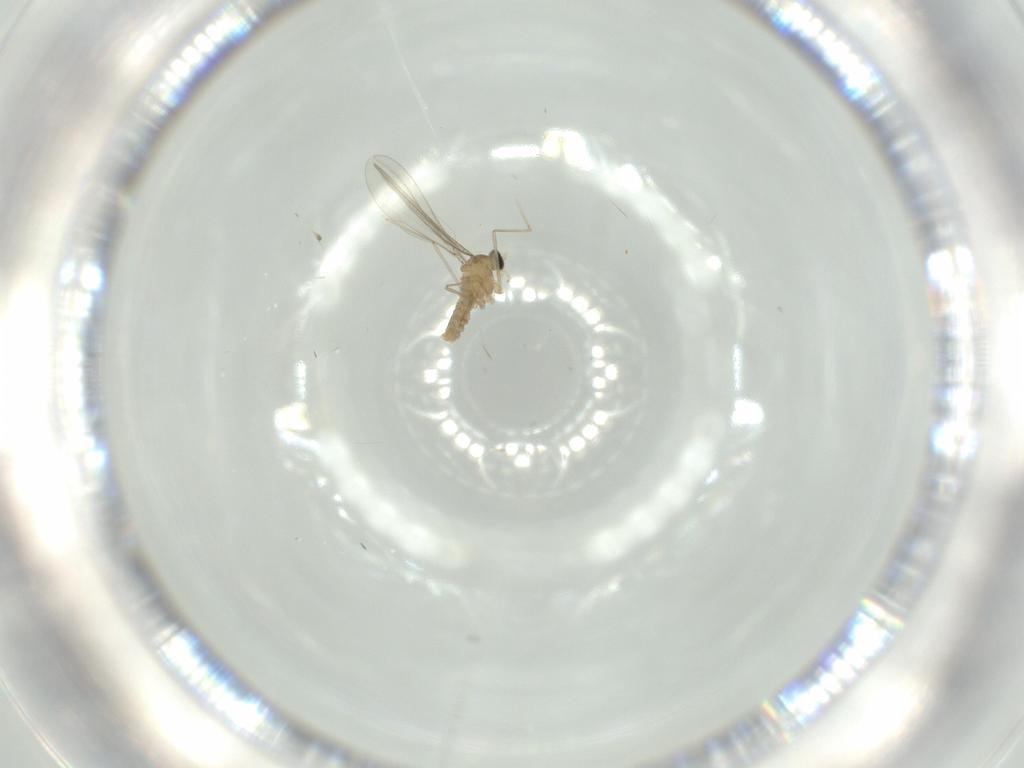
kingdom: Animalia
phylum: Arthropoda
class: Insecta
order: Diptera
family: Cecidomyiidae
